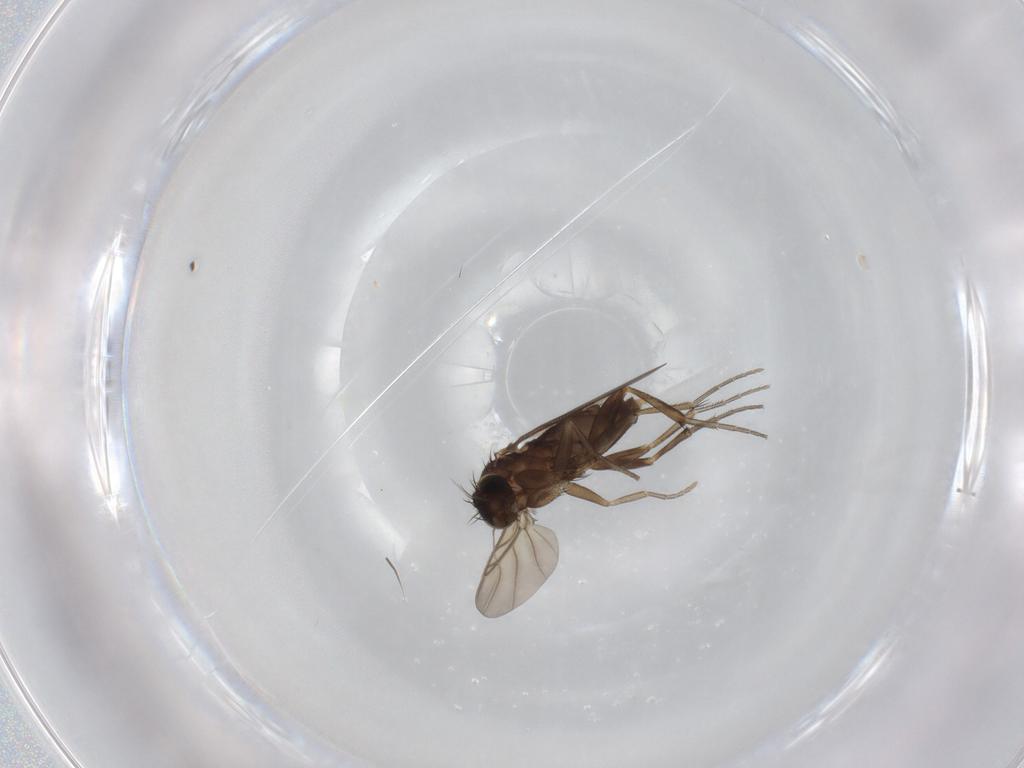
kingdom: Animalia
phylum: Arthropoda
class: Insecta
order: Diptera
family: Phoridae
